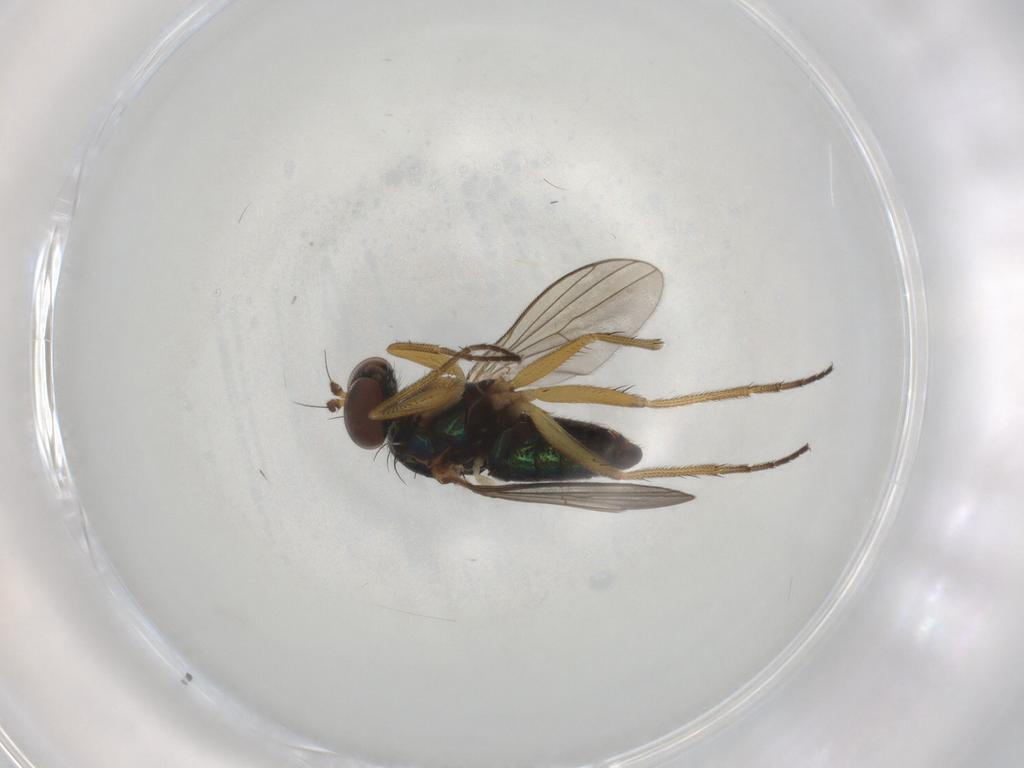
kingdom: Animalia
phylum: Arthropoda
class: Insecta
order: Diptera
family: Dolichopodidae
